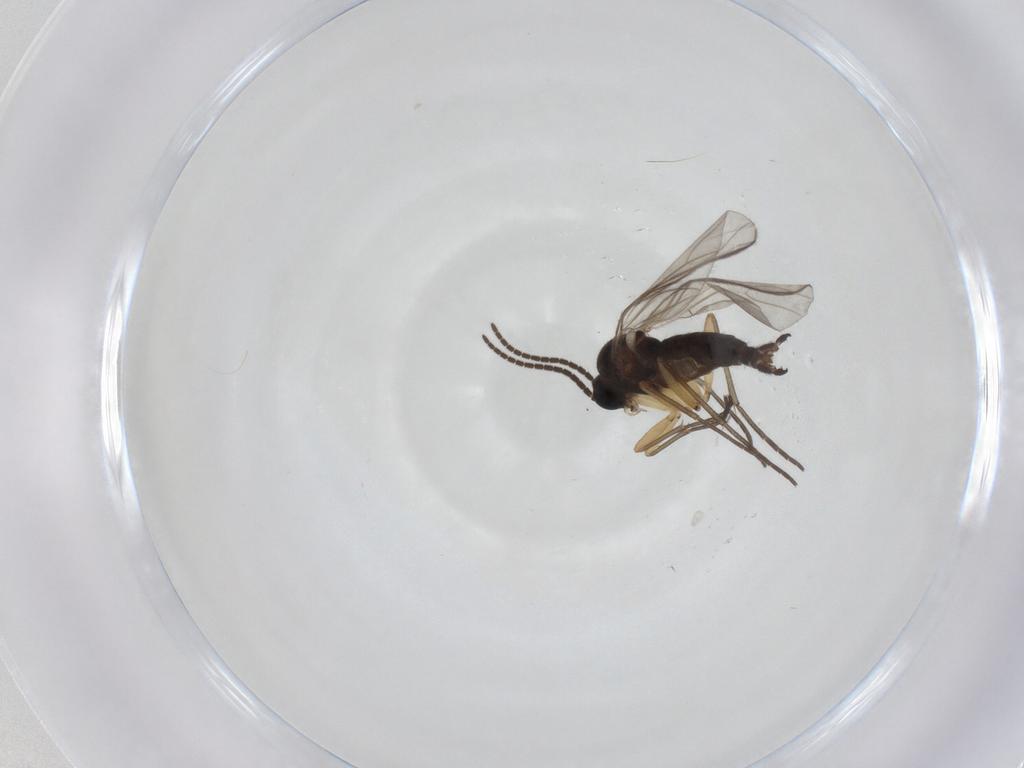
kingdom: Animalia
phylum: Arthropoda
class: Insecta
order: Diptera
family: Sciaridae
